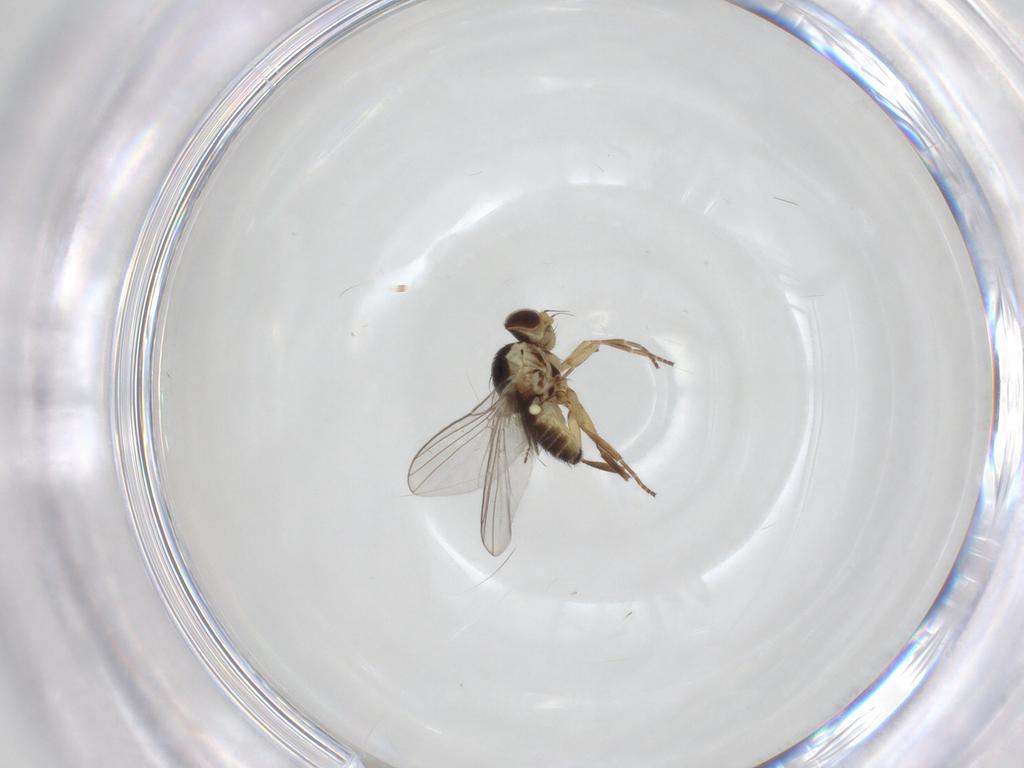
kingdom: Animalia
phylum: Arthropoda
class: Insecta
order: Diptera
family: Agromyzidae
